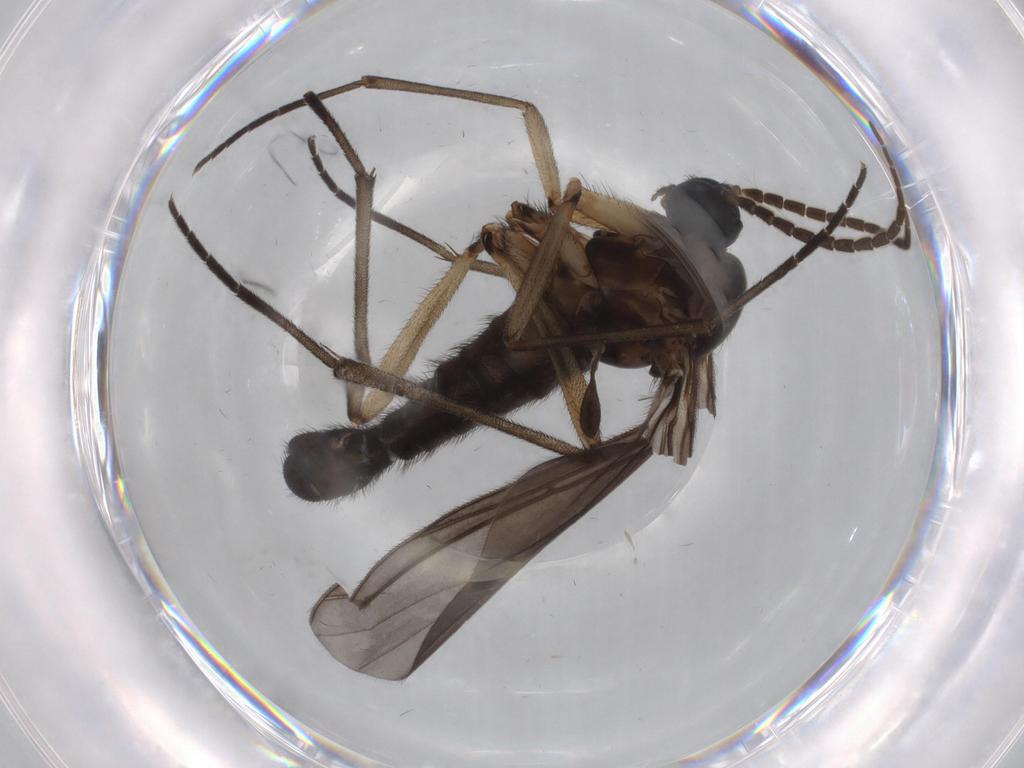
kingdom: Animalia
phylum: Arthropoda
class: Insecta
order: Diptera
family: Phoridae
